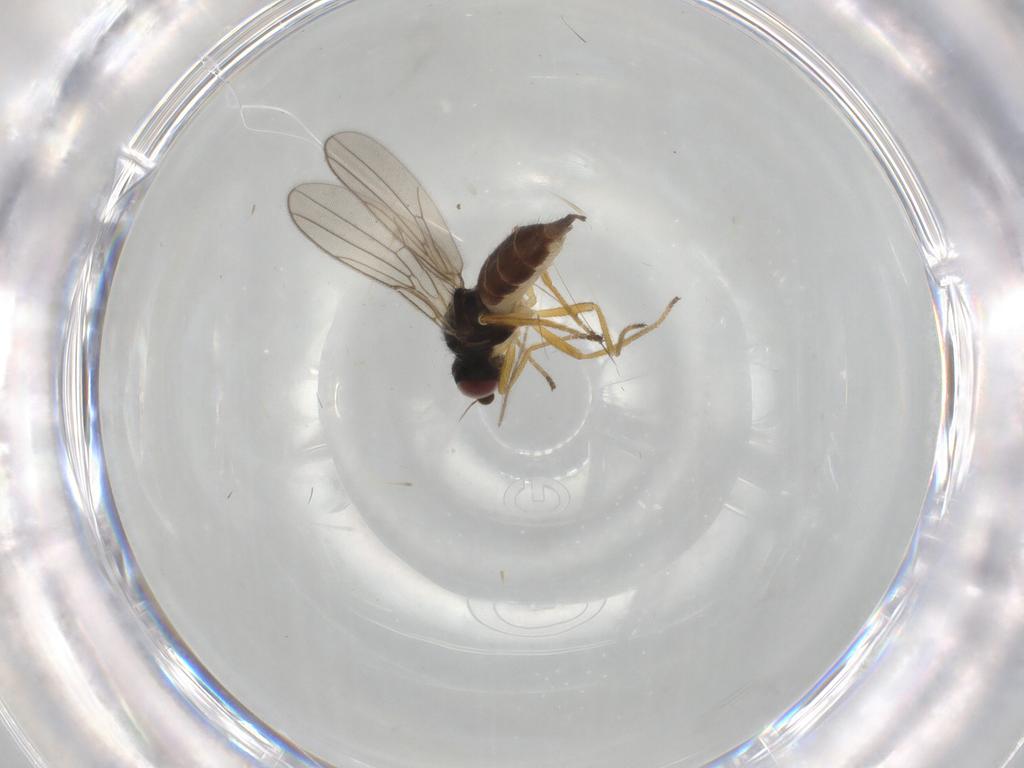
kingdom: Animalia
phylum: Arthropoda
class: Insecta
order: Diptera
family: Chloropidae
